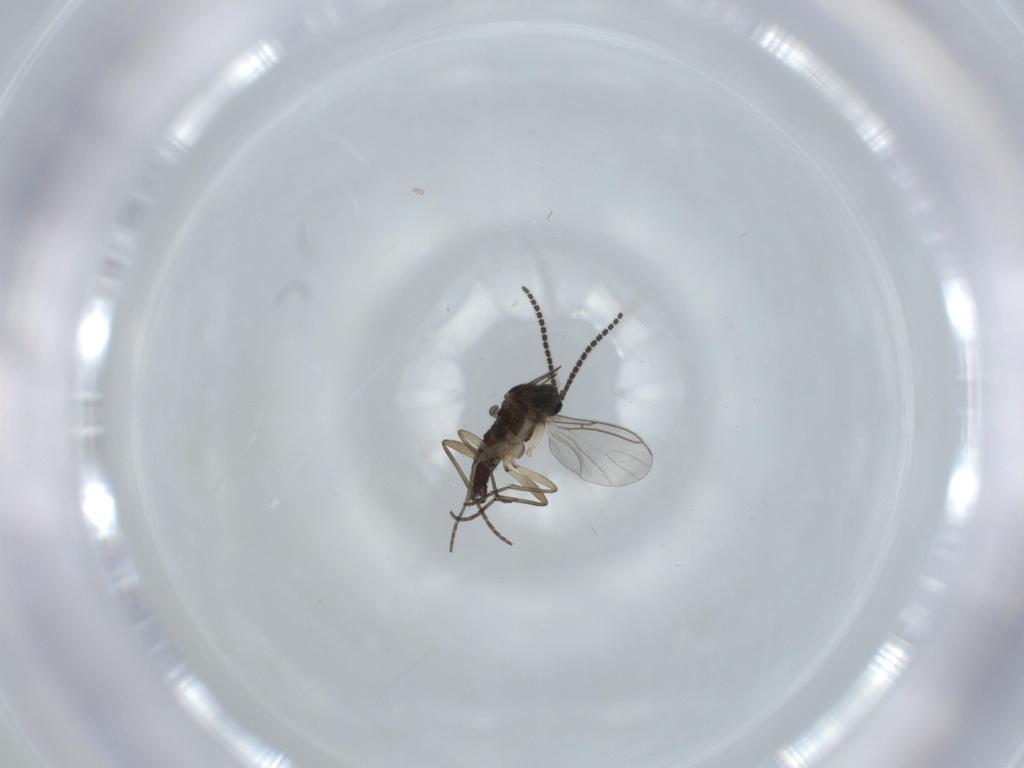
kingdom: Animalia
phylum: Arthropoda
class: Insecta
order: Diptera
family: Sciaridae
